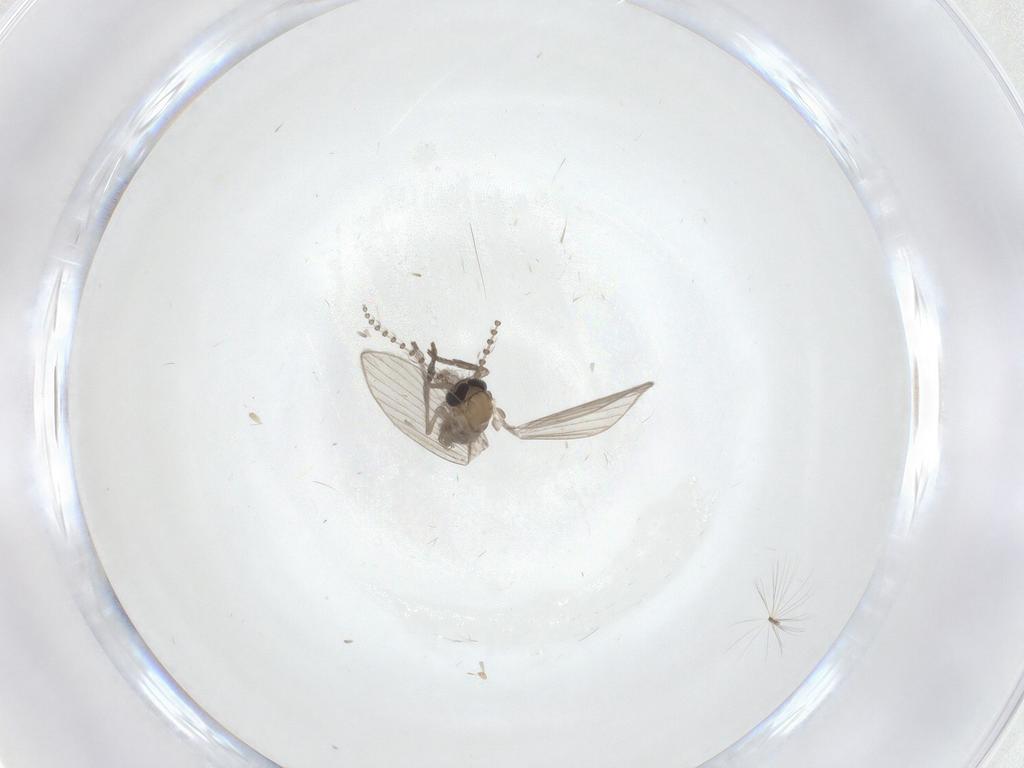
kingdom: Animalia
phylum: Arthropoda
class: Insecta
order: Diptera
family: Psychodidae
